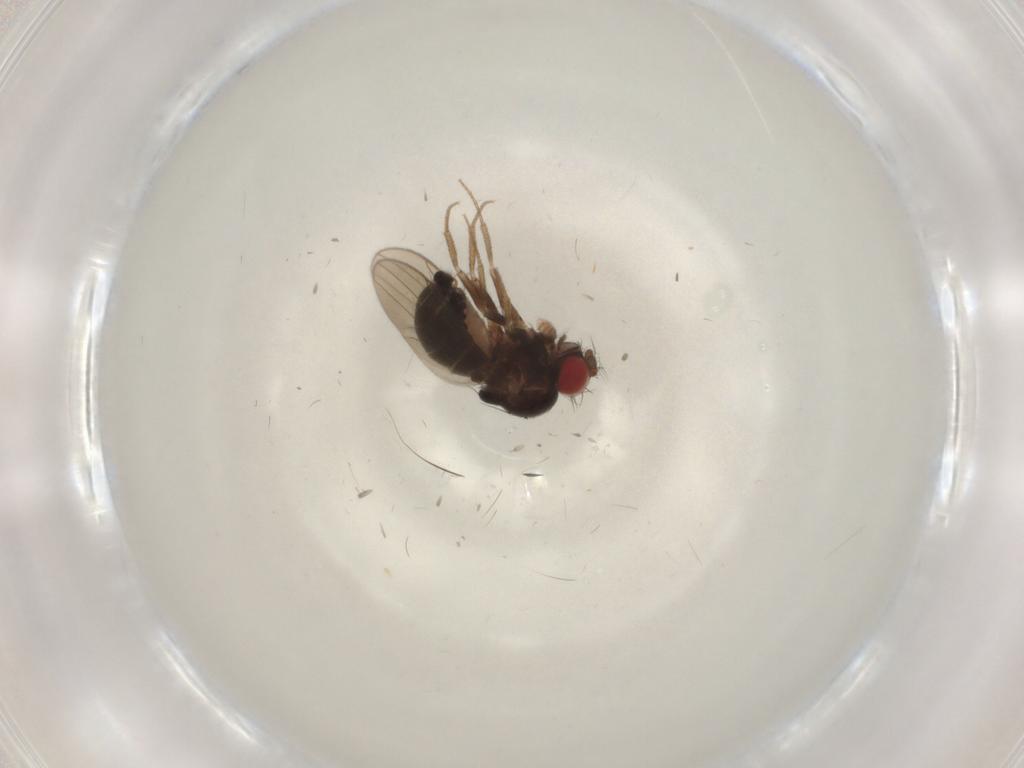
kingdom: Animalia
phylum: Arthropoda
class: Insecta
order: Diptera
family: Drosophilidae
